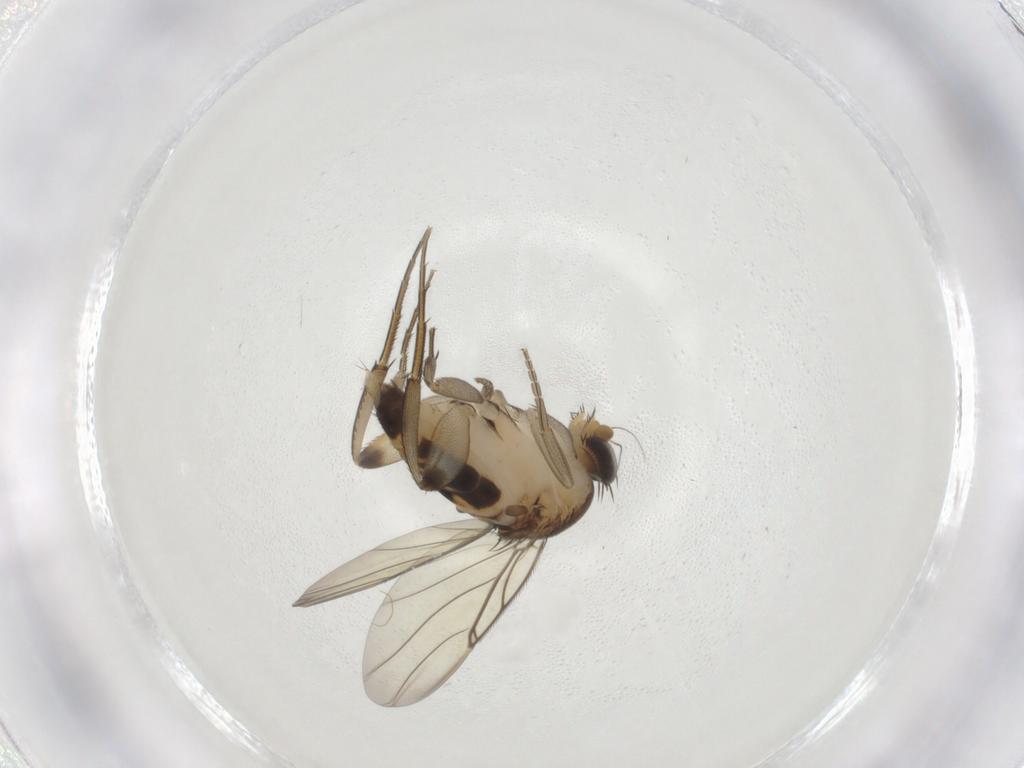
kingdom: Animalia
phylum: Arthropoda
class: Insecta
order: Diptera
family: Phoridae
